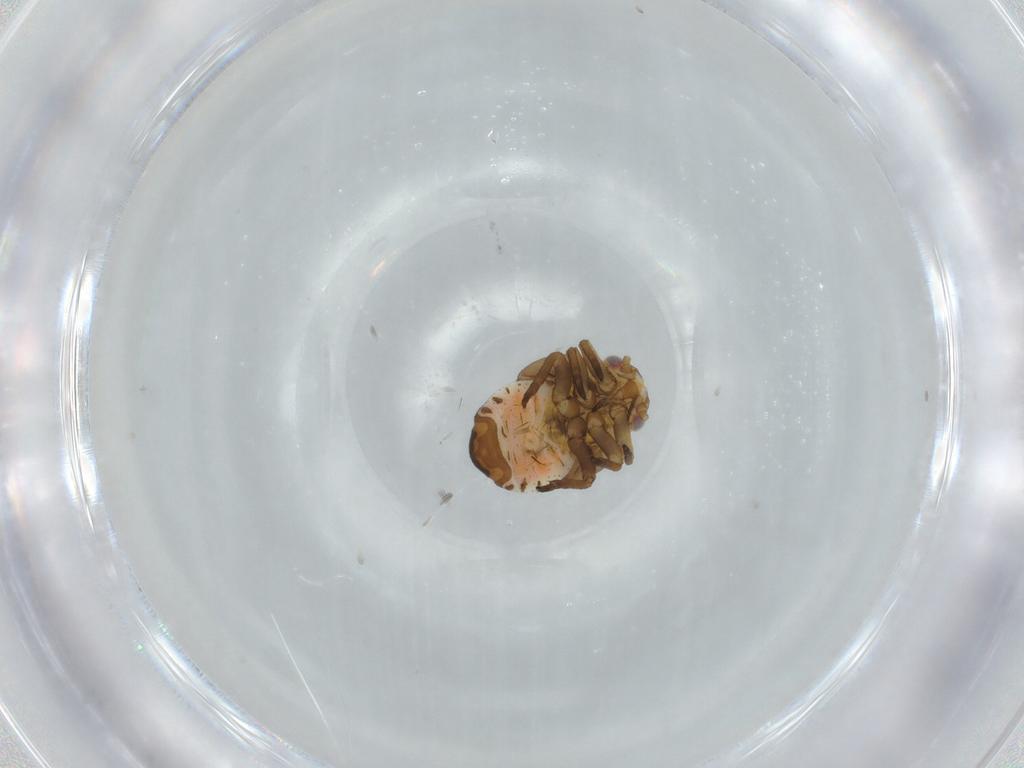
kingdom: Animalia
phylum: Arthropoda
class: Insecta
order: Hemiptera
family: Psyllidae
